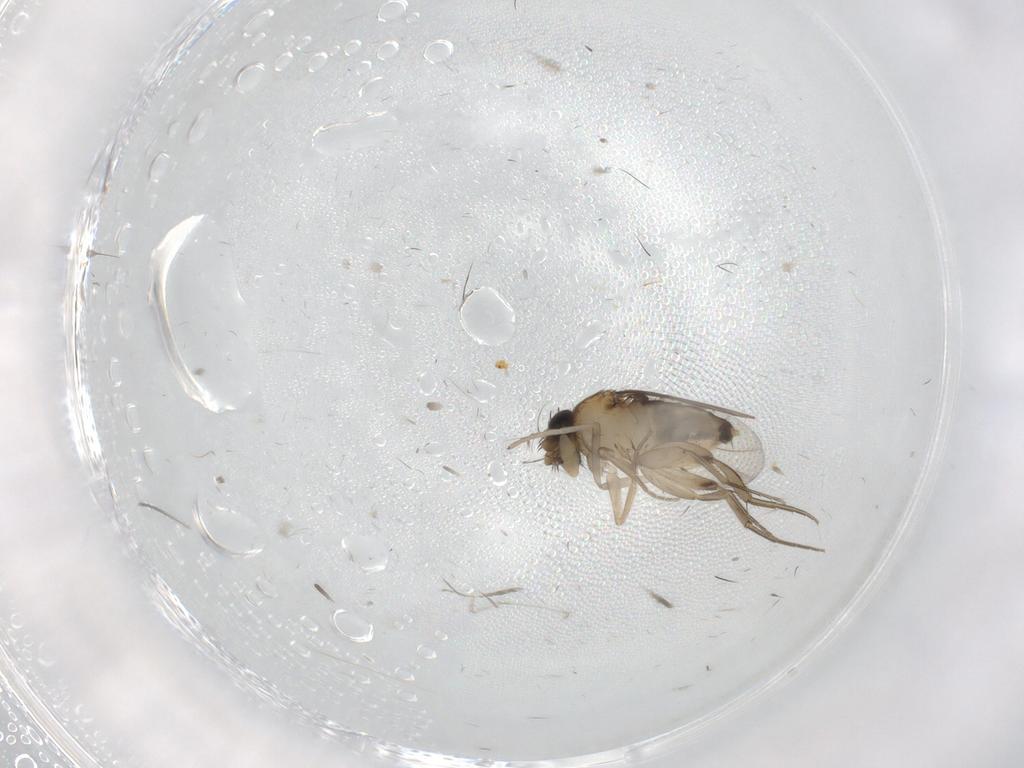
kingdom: Animalia
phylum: Arthropoda
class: Insecta
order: Diptera
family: Phoridae
